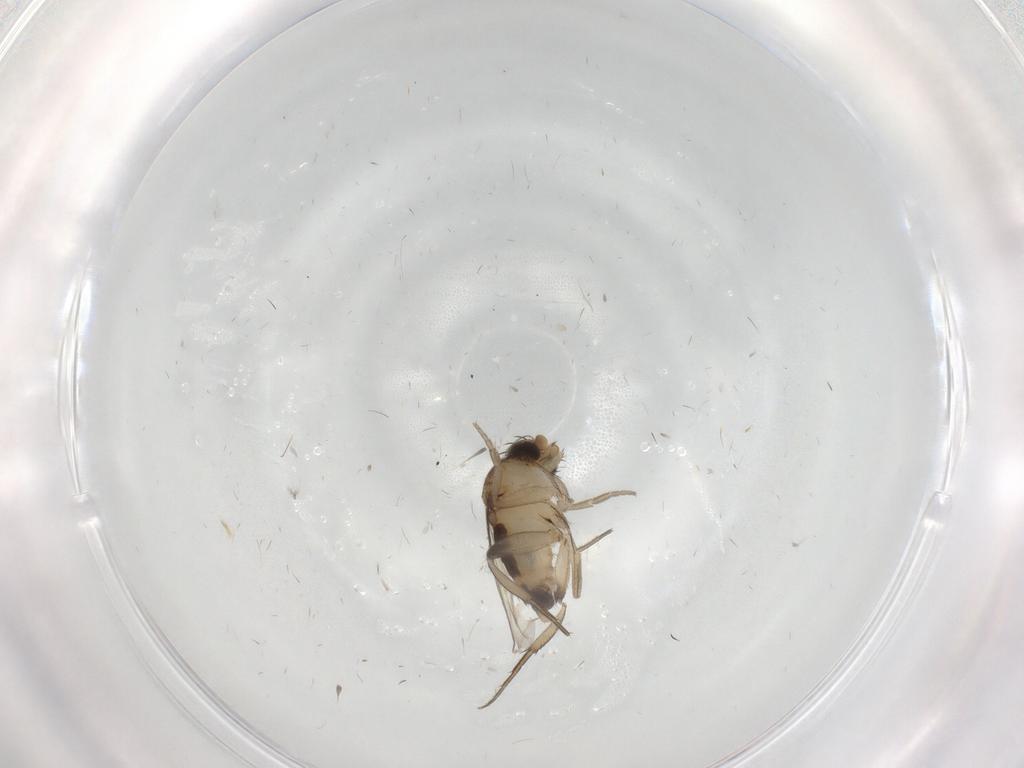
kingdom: Animalia
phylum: Arthropoda
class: Insecta
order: Diptera
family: Phoridae
